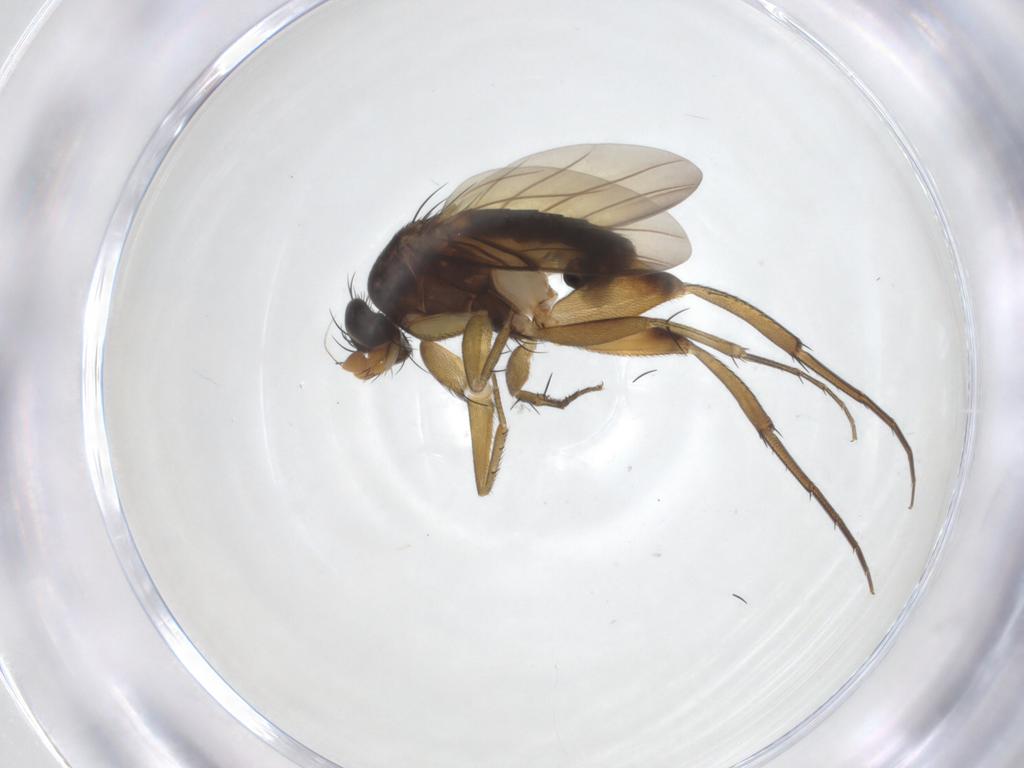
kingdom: Animalia
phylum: Arthropoda
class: Insecta
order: Diptera
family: Phoridae
